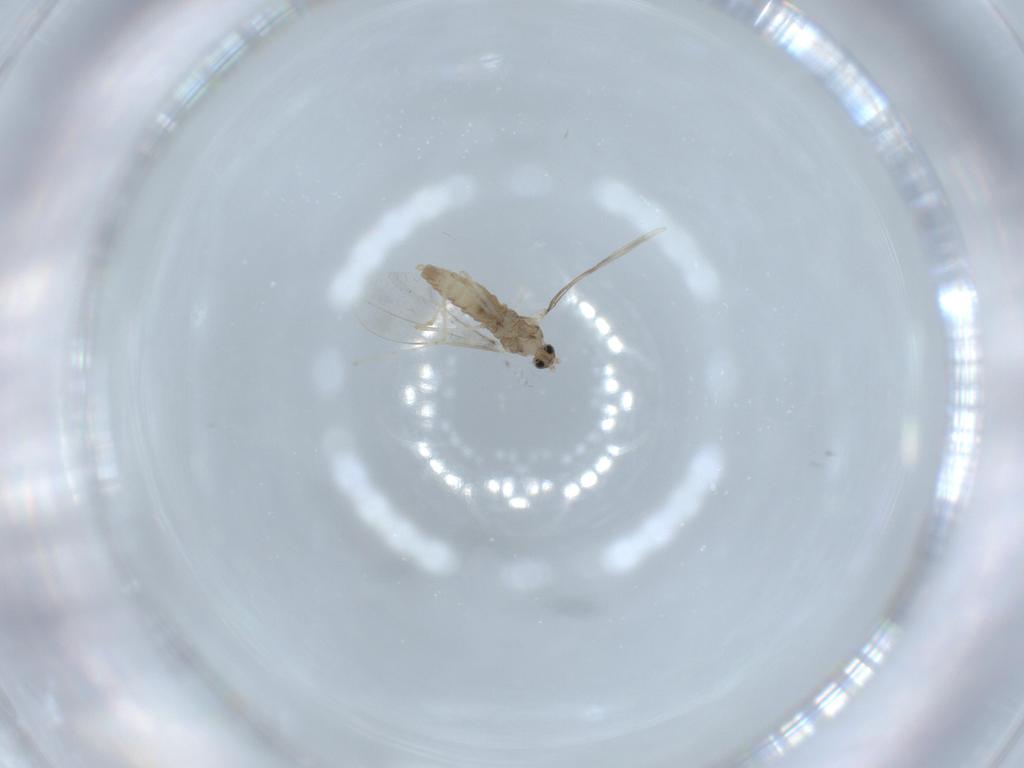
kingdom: Animalia
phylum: Arthropoda
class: Insecta
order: Diptera
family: Cecidomyiidae
